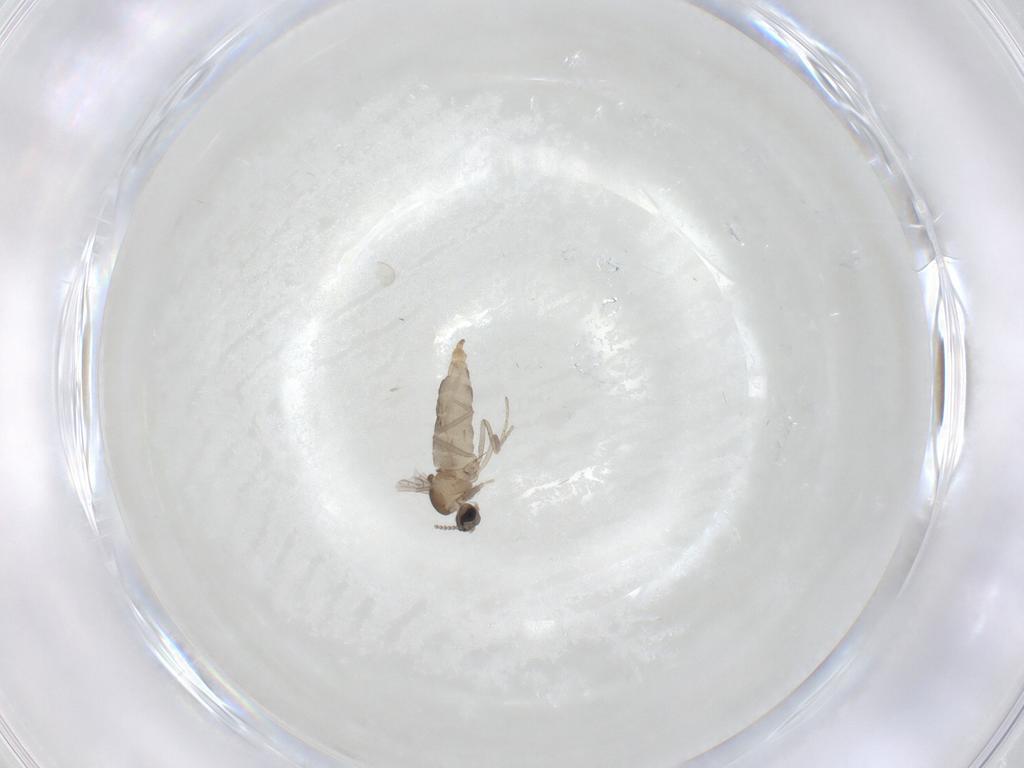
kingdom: Animalia
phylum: Arthropoda
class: Insecta
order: Diptera
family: Cecidomyiidae
